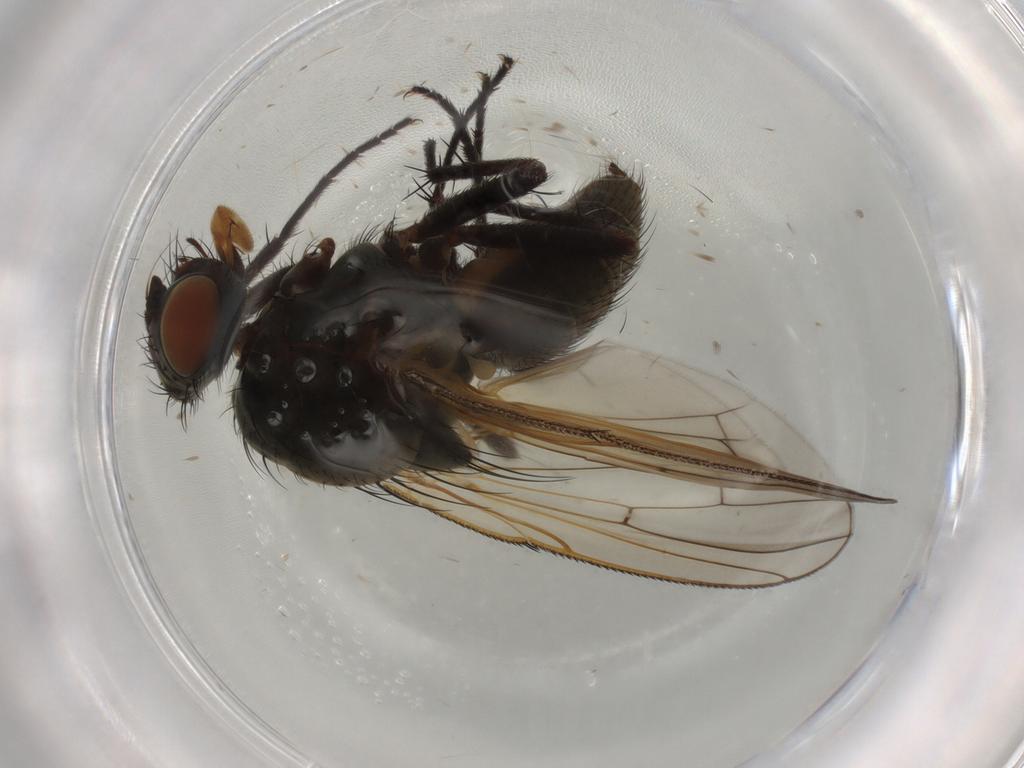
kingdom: Animalia
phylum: Arthropoda
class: Insecta
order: Diptera
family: Anthomyiidae
